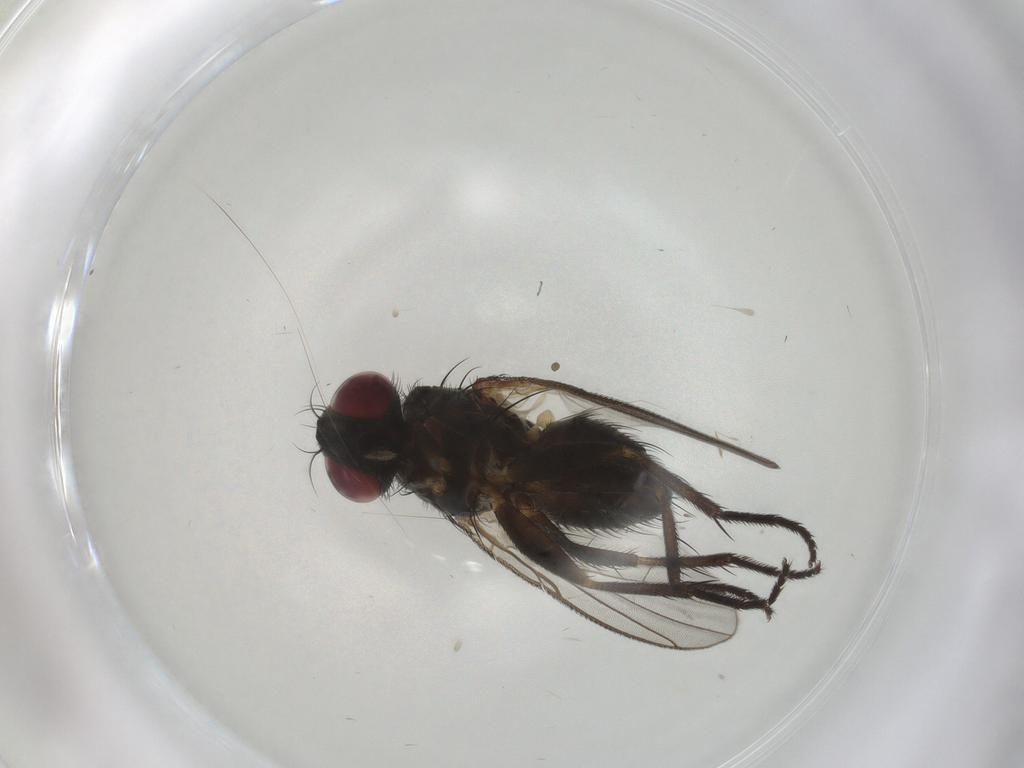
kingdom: Animalia
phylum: Arthropoda
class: Insecta
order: Diptera
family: Muscidae
